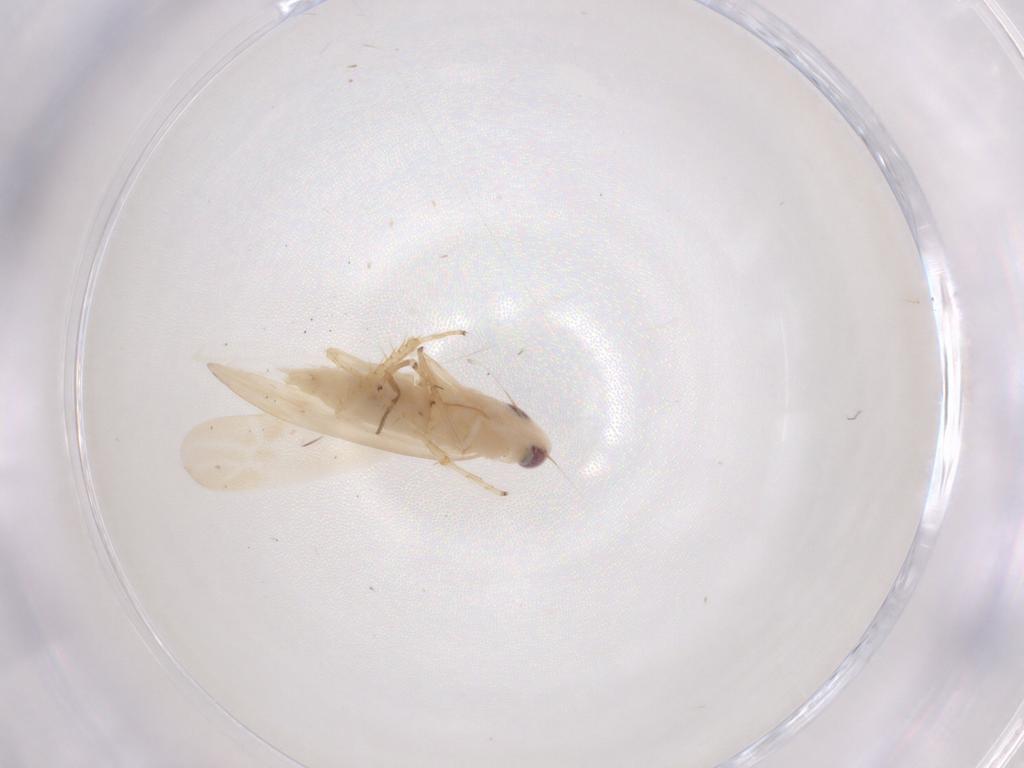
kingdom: Animalia
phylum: Arthropoda
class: Insecta
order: Hemiptera
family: Cicadellidae
